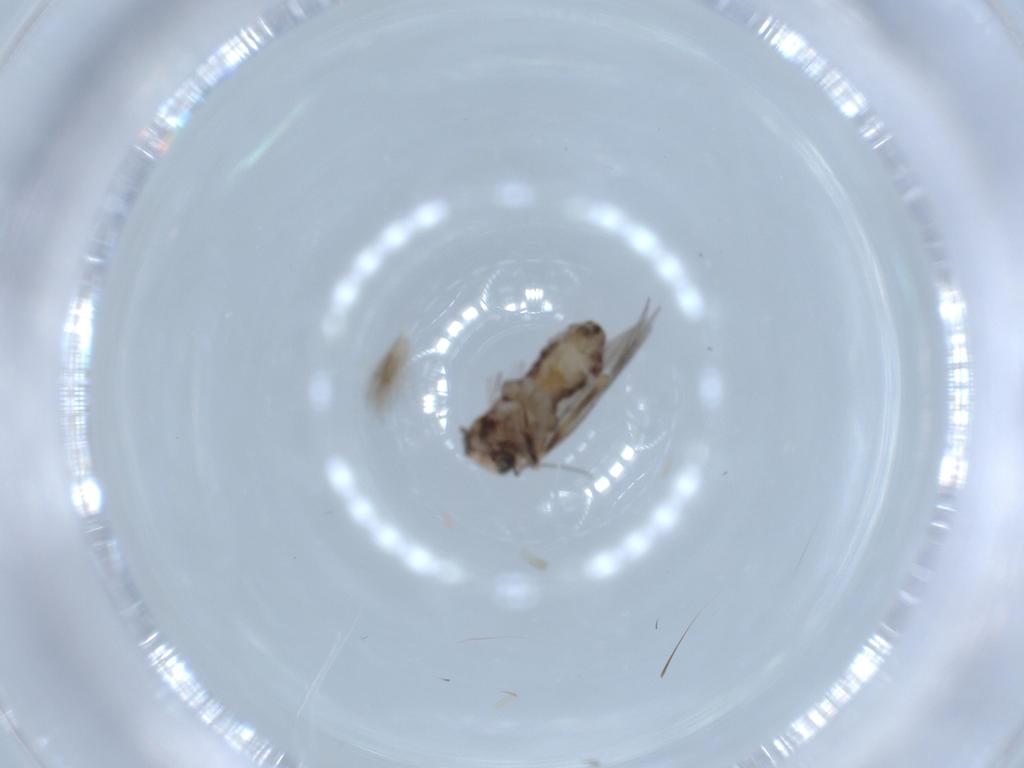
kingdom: Animalia
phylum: Arthropoda
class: Insecta
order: Psocodea
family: Lepidopsocidae
